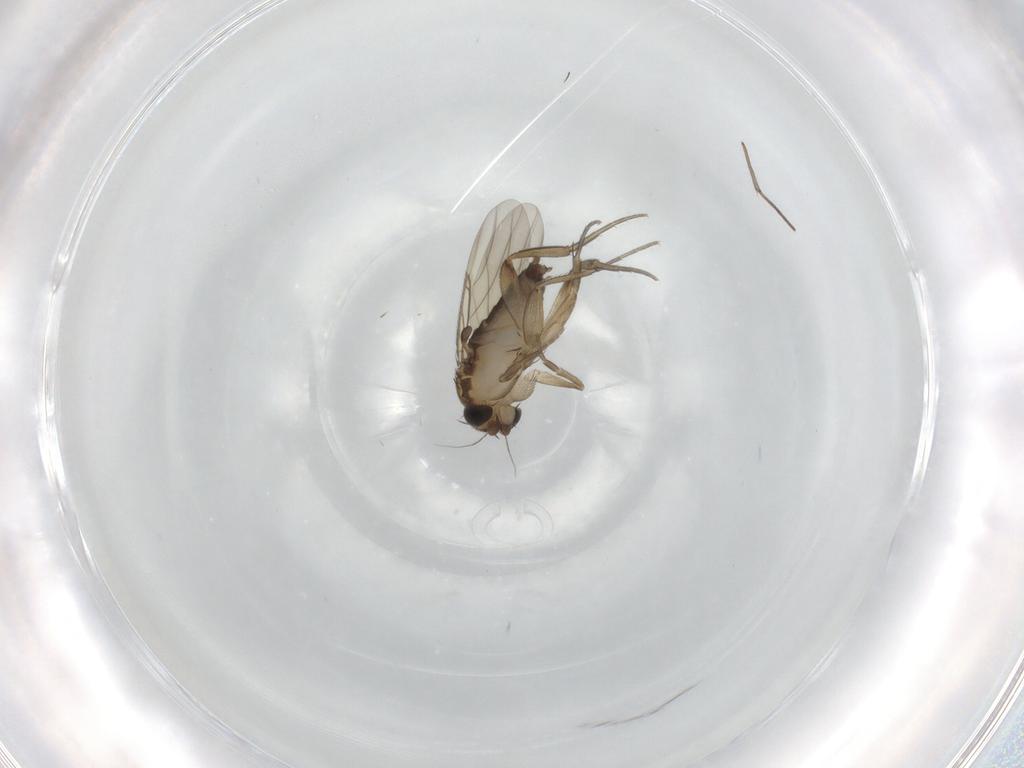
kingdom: Animalia
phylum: Arthropoda
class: Insecta
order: Diptera
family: Phoridae
